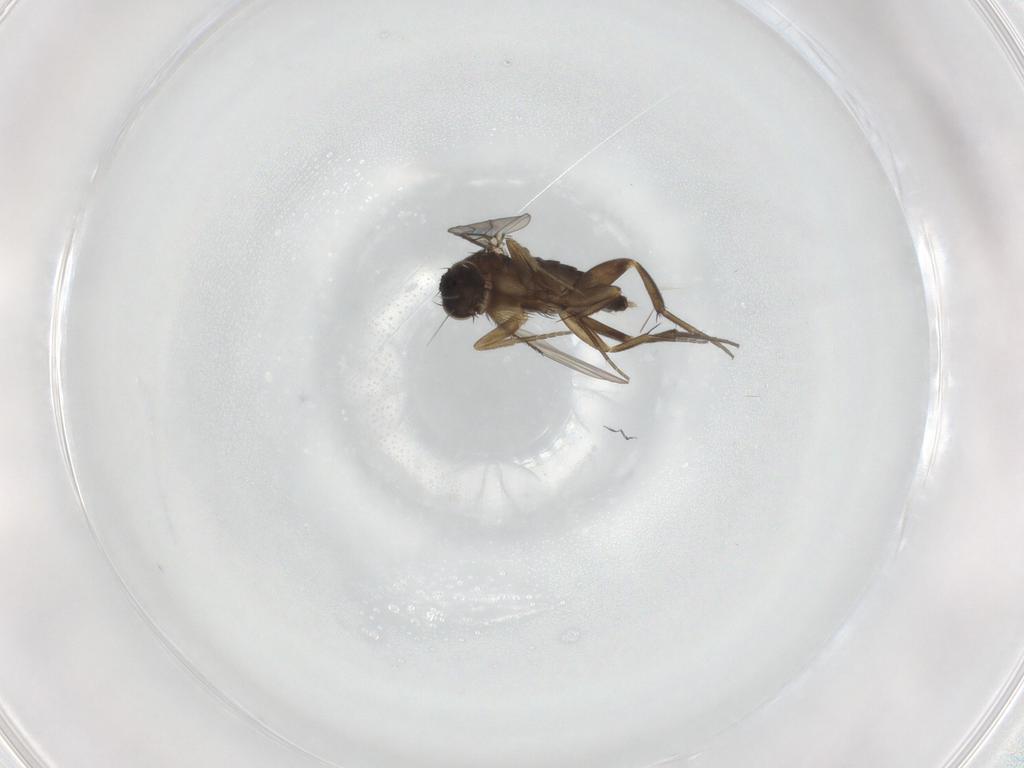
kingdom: Animalia
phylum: Arthropoda
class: Insecta
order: Diptera
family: Phoridae
